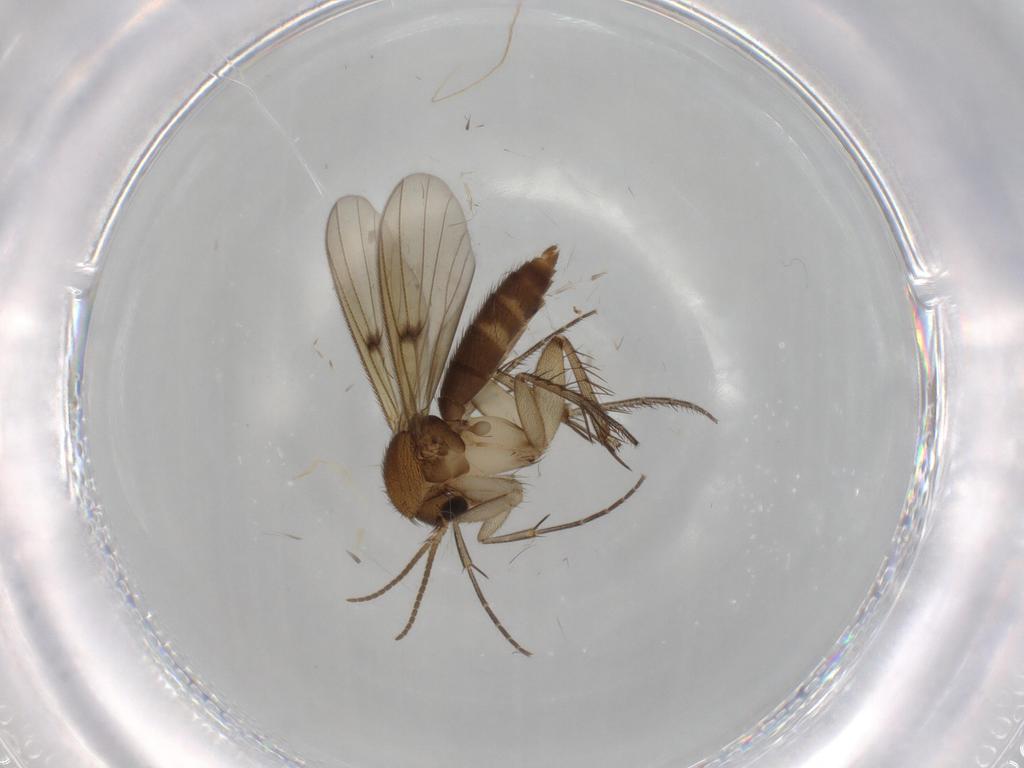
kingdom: Animalia
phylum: Arthropoda
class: Insecta
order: Diptera
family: Mycetophilidae
